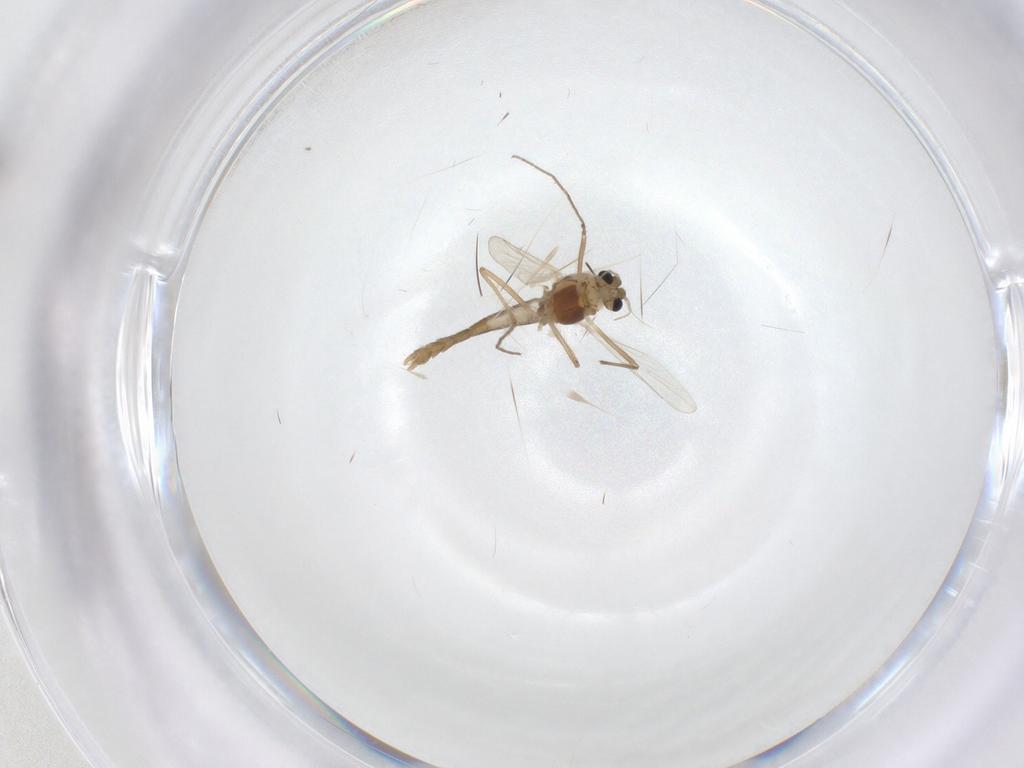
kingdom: Animalia
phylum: Arthropoda
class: Insecta
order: Diptera
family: Chironomidae
